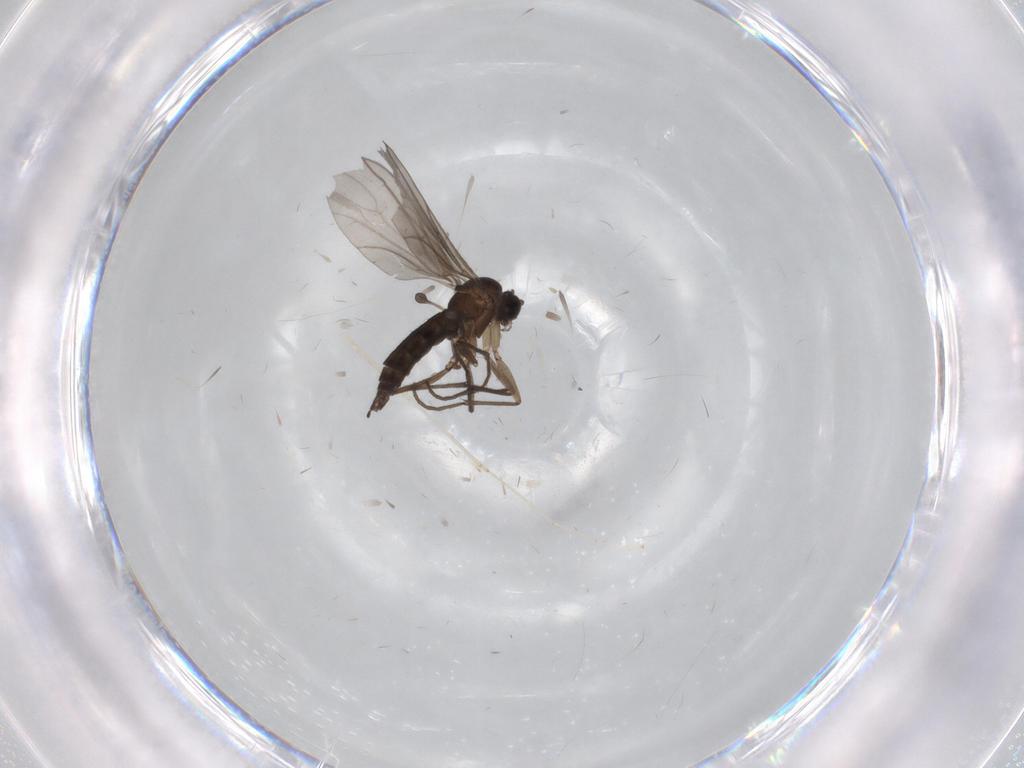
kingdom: Animalia
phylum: Arthropoda
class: Insecta
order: Diptera
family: Sciaridae
